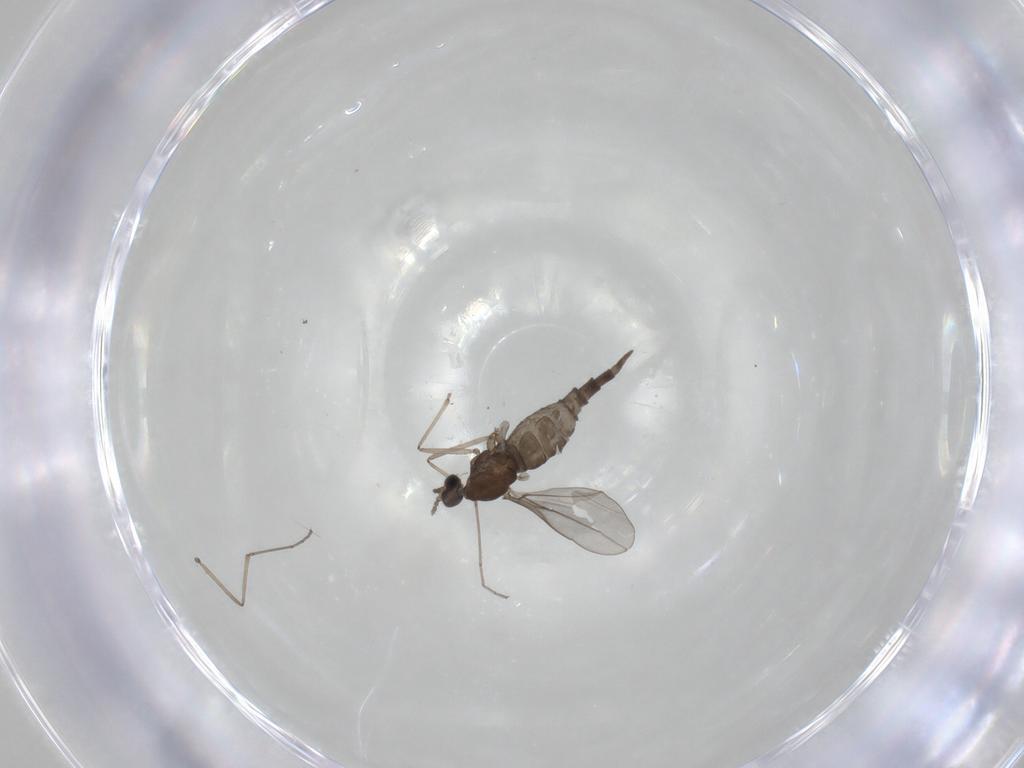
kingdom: Animalia
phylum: Arthropoda
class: Insecta
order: Diptera
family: Cecidomyiidae
